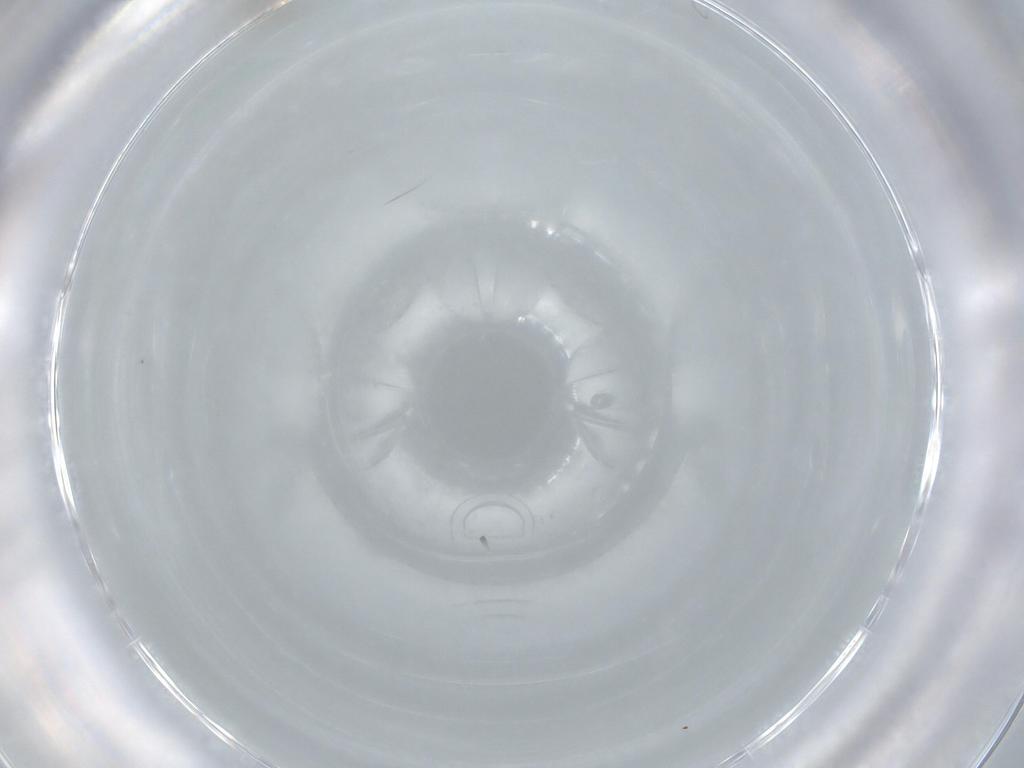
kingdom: Animalia
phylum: Arthropoda
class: Insecta
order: Diptera
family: Cecidomyiidae
